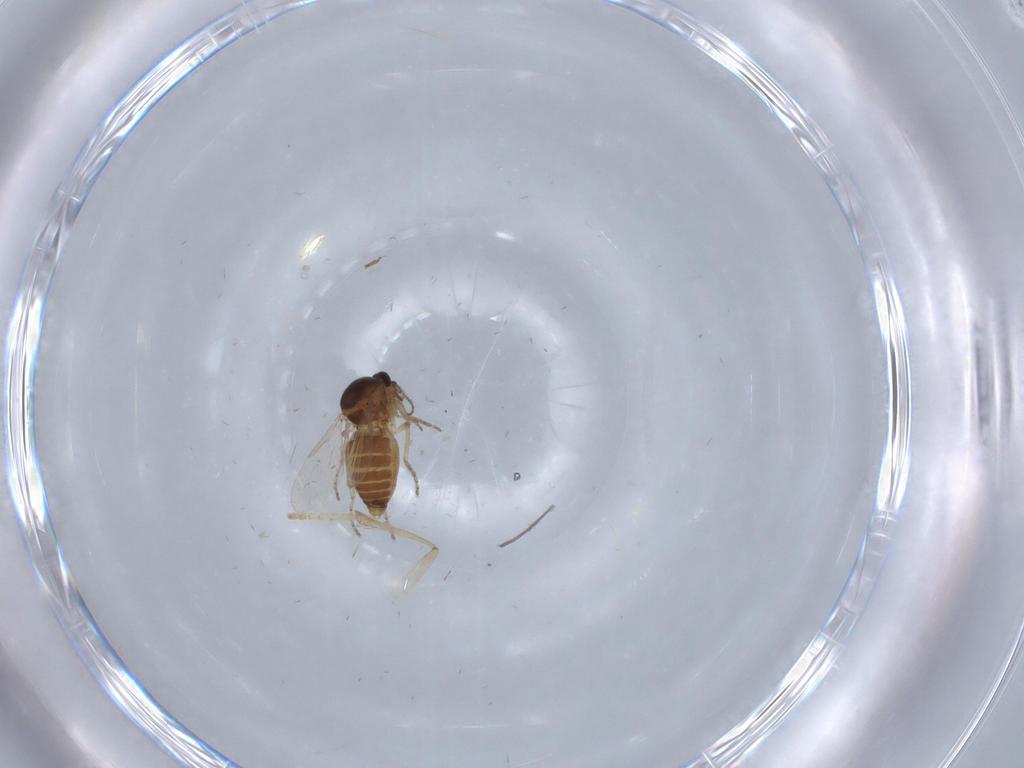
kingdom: Animalia
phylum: Arthropoda
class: Insecta
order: Diptera
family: Ceratopogonidae
